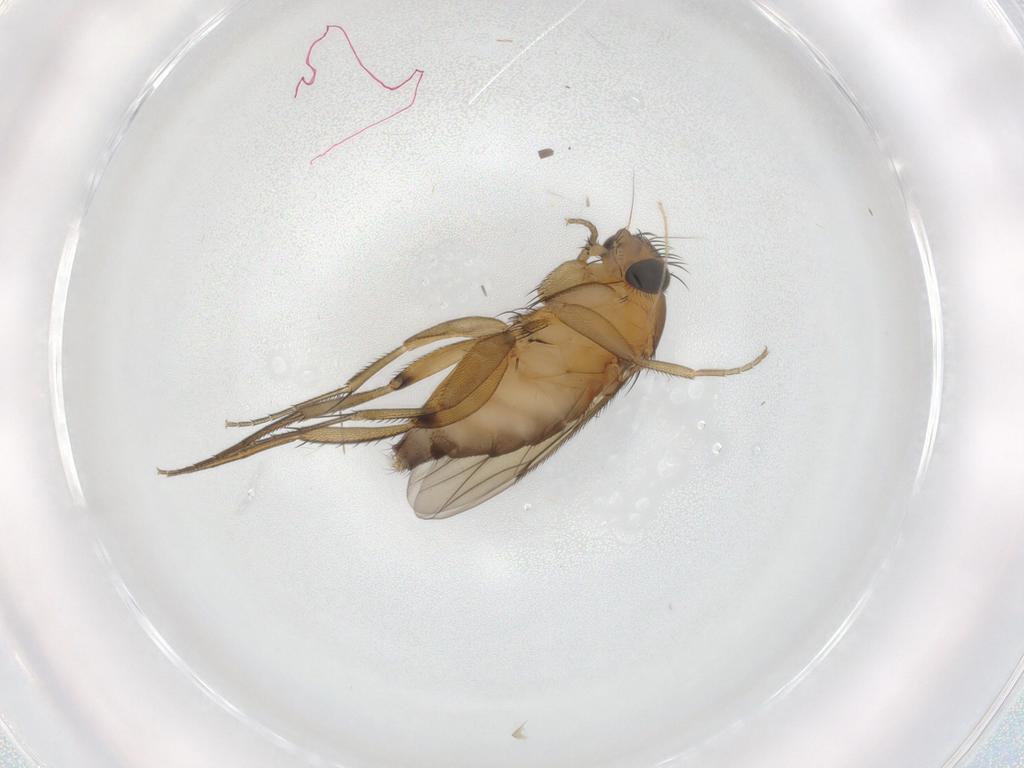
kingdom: Animalia
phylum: Arthropoda
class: Insecta
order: Diptera
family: Phoridae
